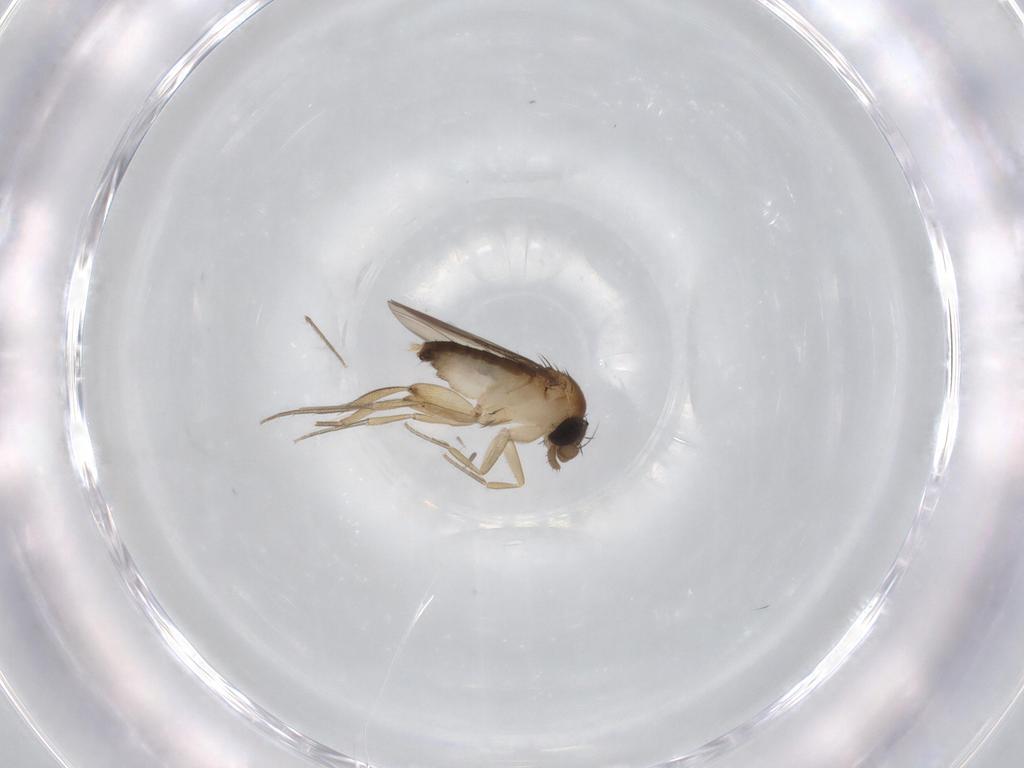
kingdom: Animalia
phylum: Arthropoda
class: Insecta
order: Diptera
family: Phoridae
